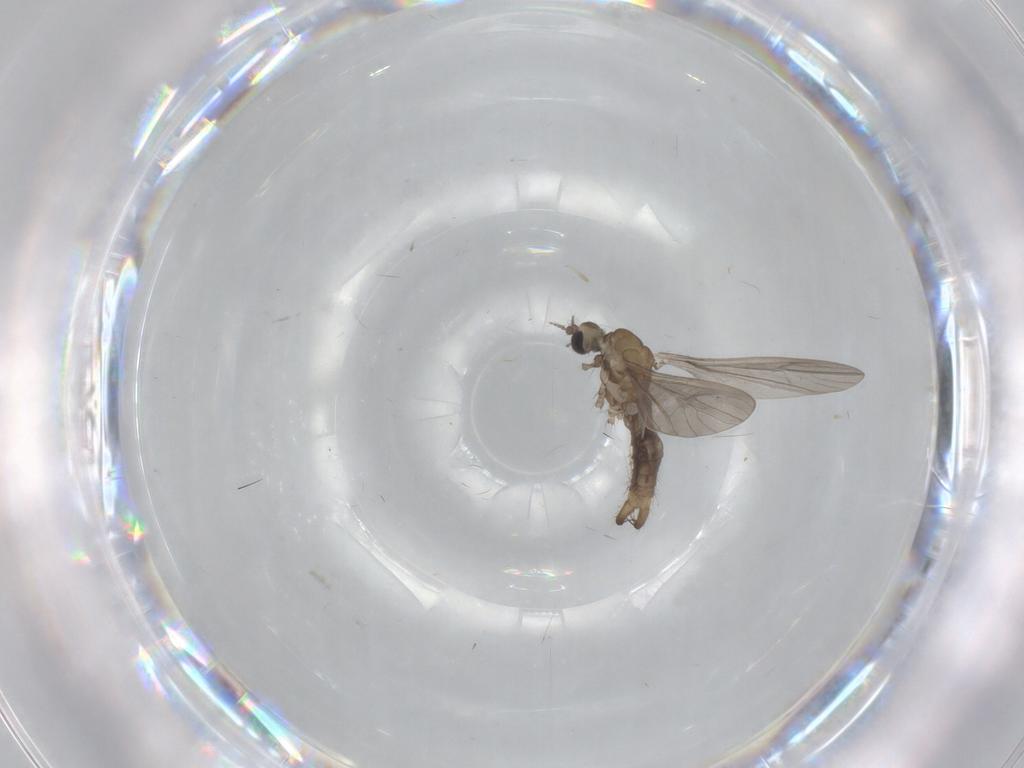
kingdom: Animalia
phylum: Arthropoda
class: Insecta
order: Diptera
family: Limoniidae
